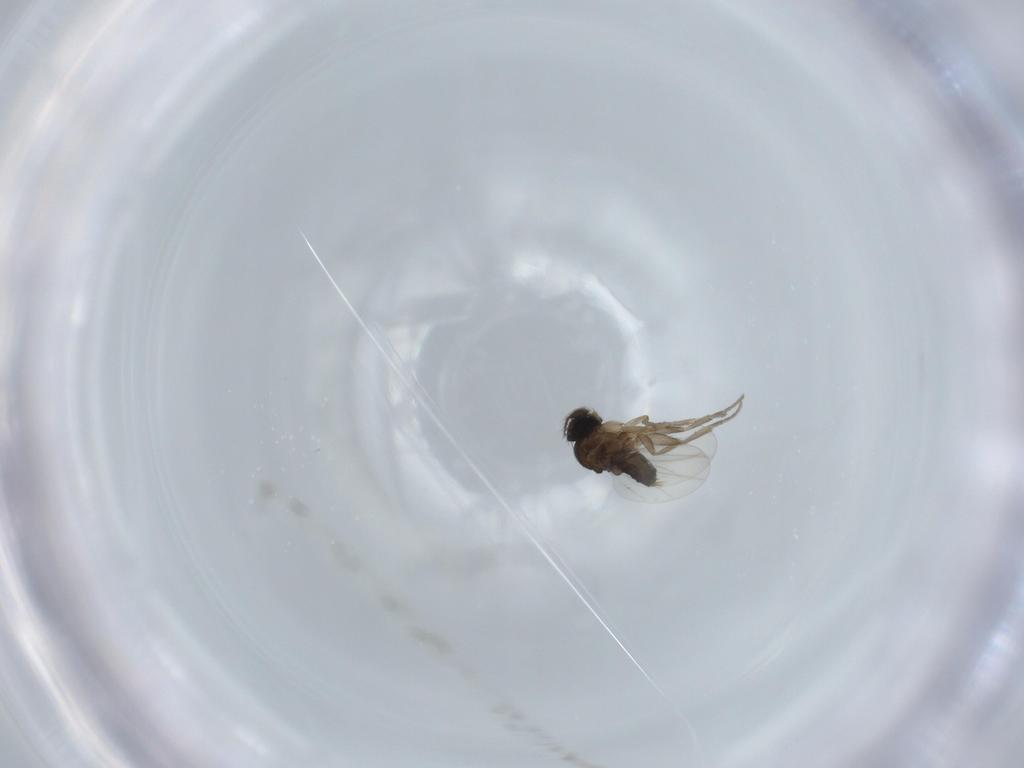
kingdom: Animalia
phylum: Arthropoda
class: Insecta
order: Diptera
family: Phoridae
